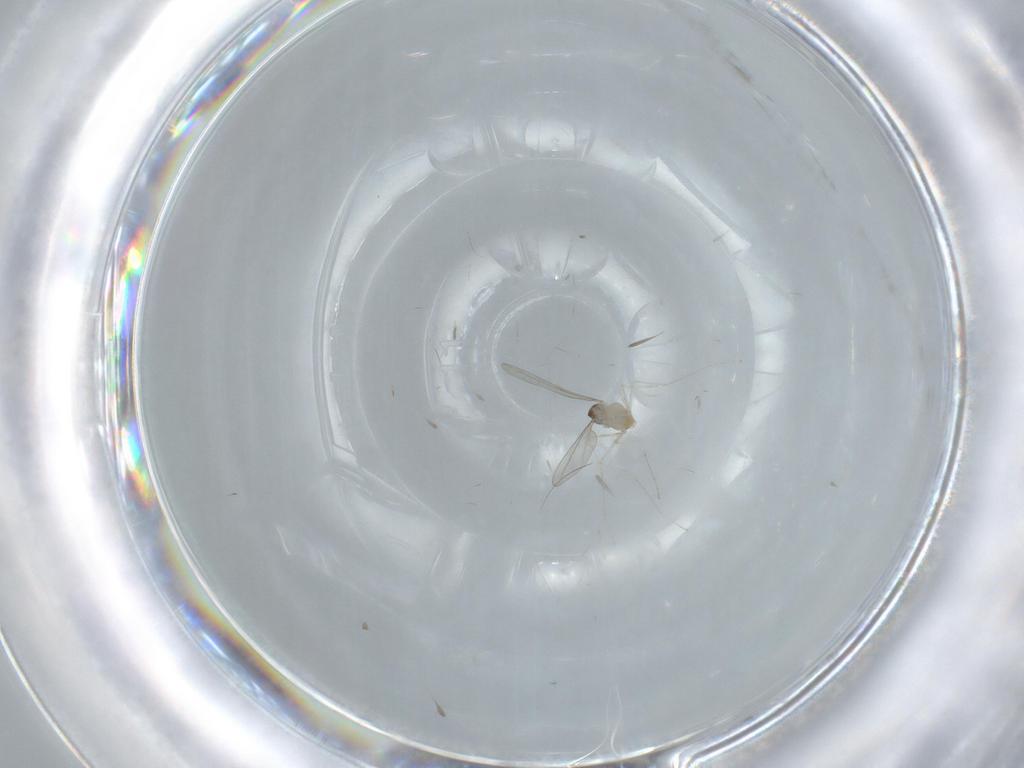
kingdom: Animalia
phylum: Arthropoda
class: Insecta
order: Diptera
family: Cecidomyiidae
